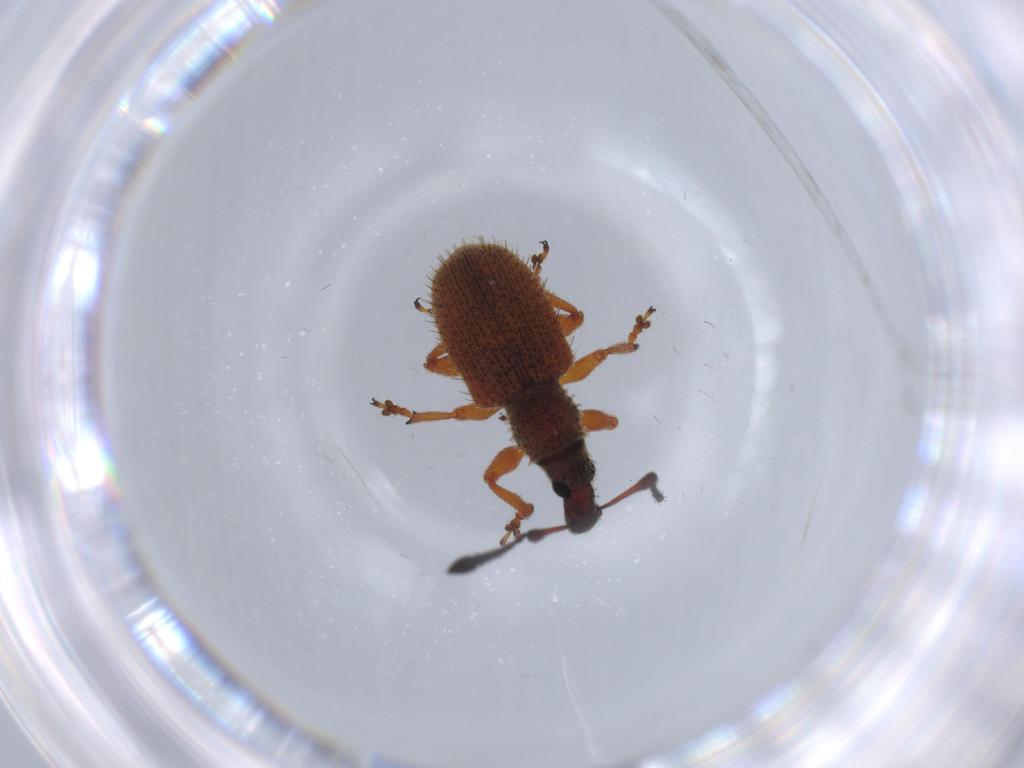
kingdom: Animalia
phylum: Arthropoda
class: Insecta
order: Coleoptera
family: Curculionidae
